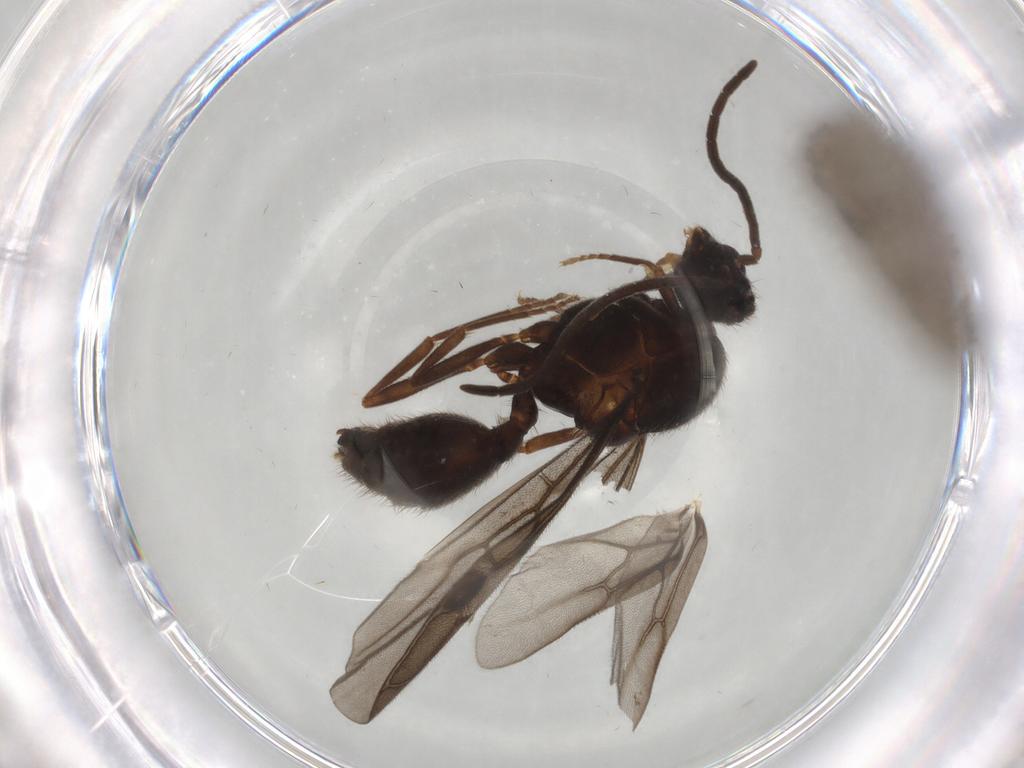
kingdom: Animalia
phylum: Arthropoda
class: Insecta
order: Hymenoptera
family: Formicidae
